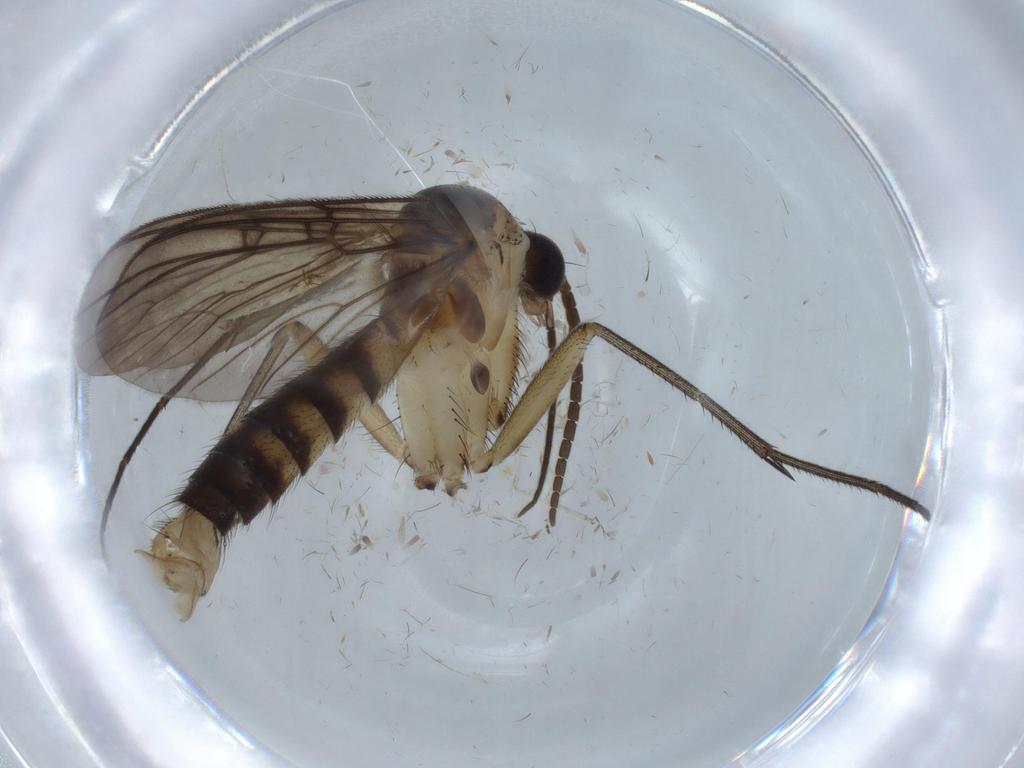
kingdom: Animalia
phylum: Arthropoda
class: Insecta
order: Diptera
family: Mycetophilidae
